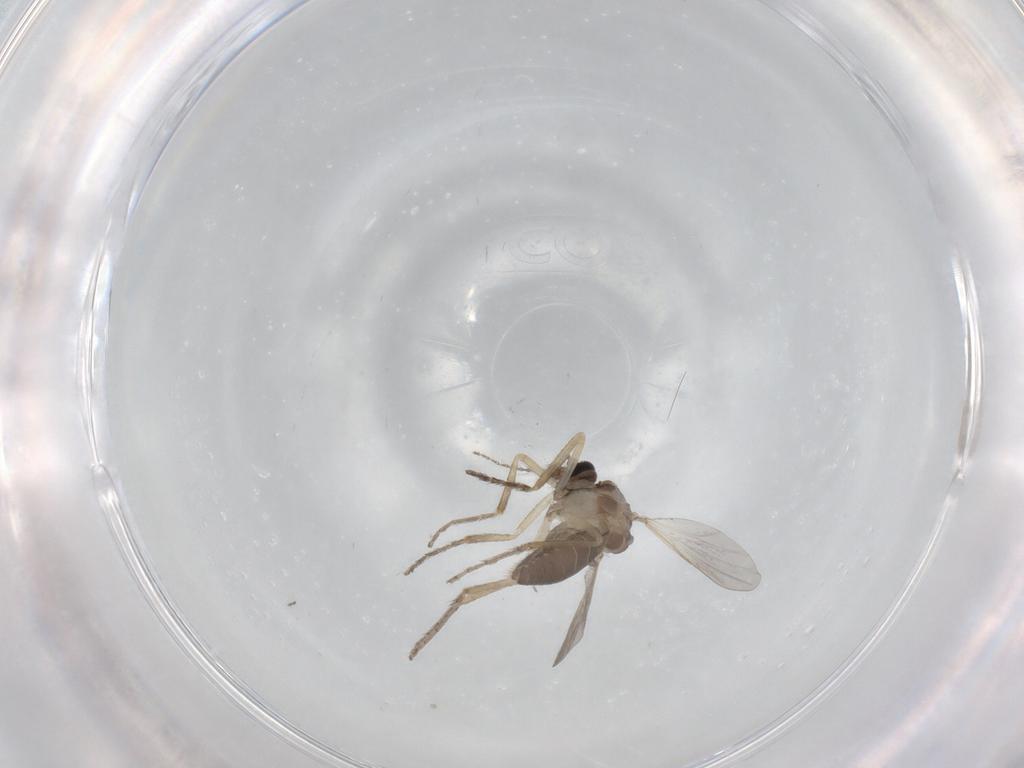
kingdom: Animalia
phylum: Arthropoda
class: Insecta
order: Diptera
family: Ceratopogonidae
